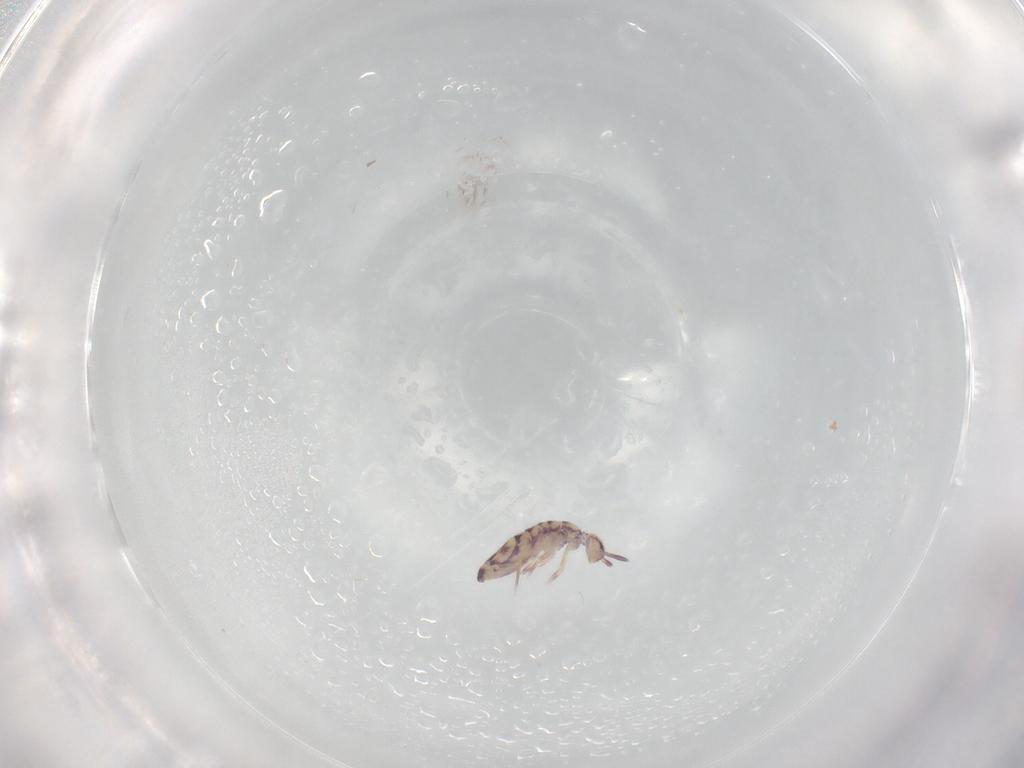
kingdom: Animalia
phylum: Arthropoda
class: Collembola
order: Entomobryomorpha
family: Entomobryidae
